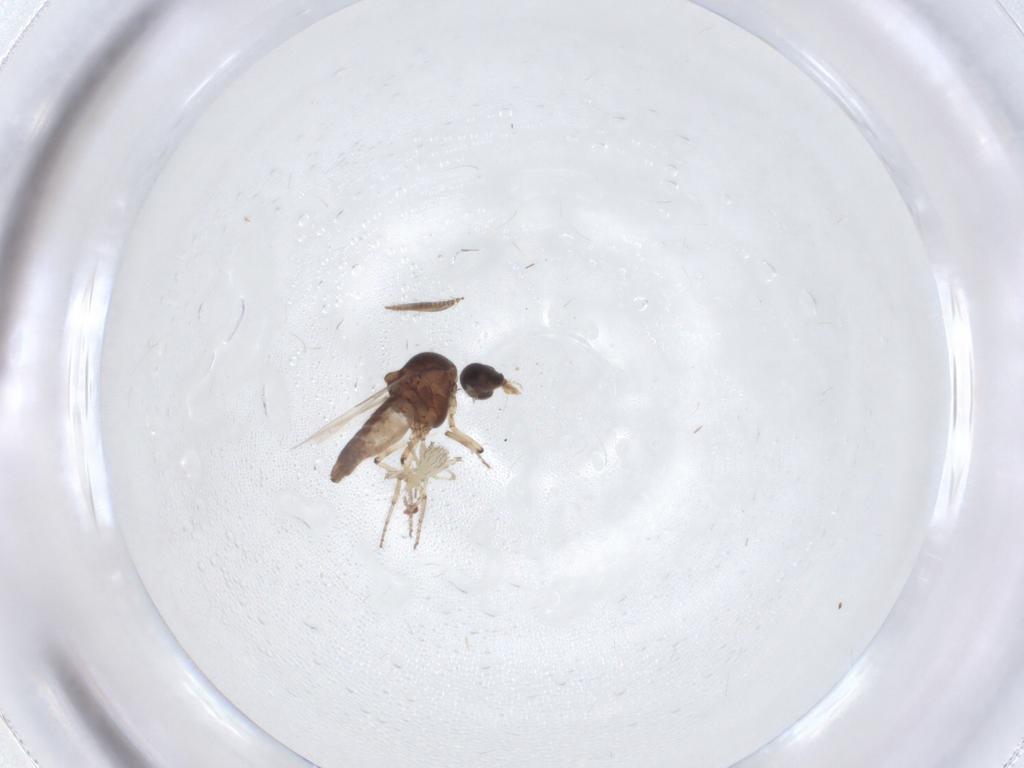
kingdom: Animalia
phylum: Arthropoda
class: Insecta
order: Diptera
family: Ceratopogonidae
